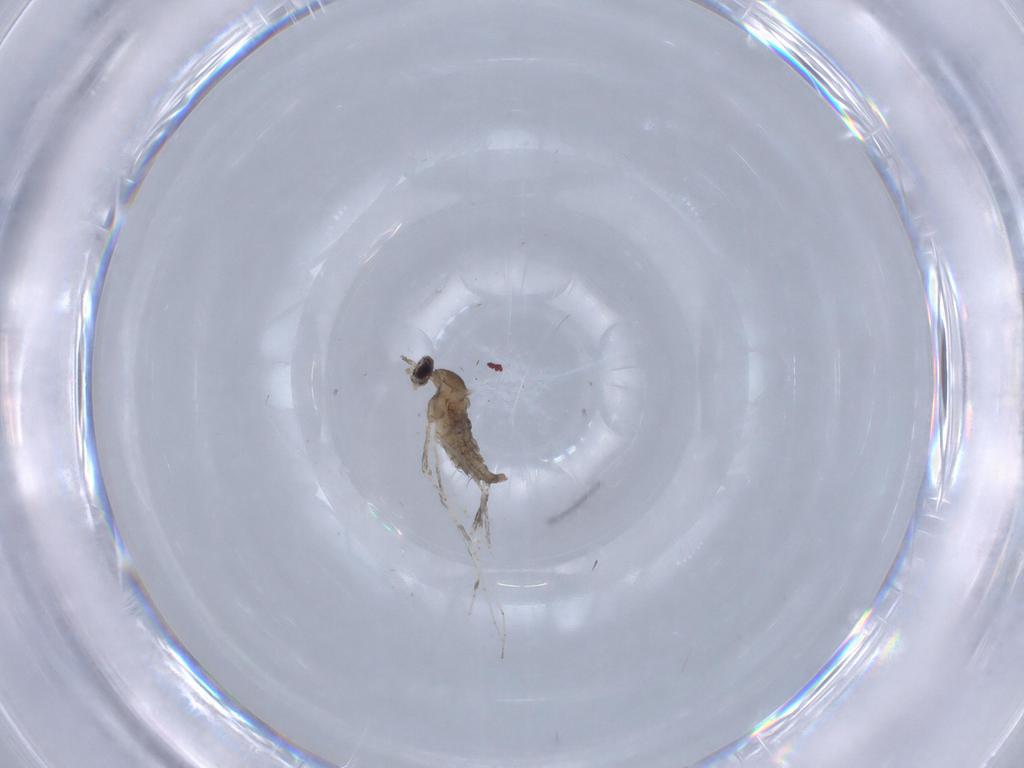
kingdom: Animalia
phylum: Arthropoda
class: Insecta
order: Diptera
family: Cecidomyiidae
